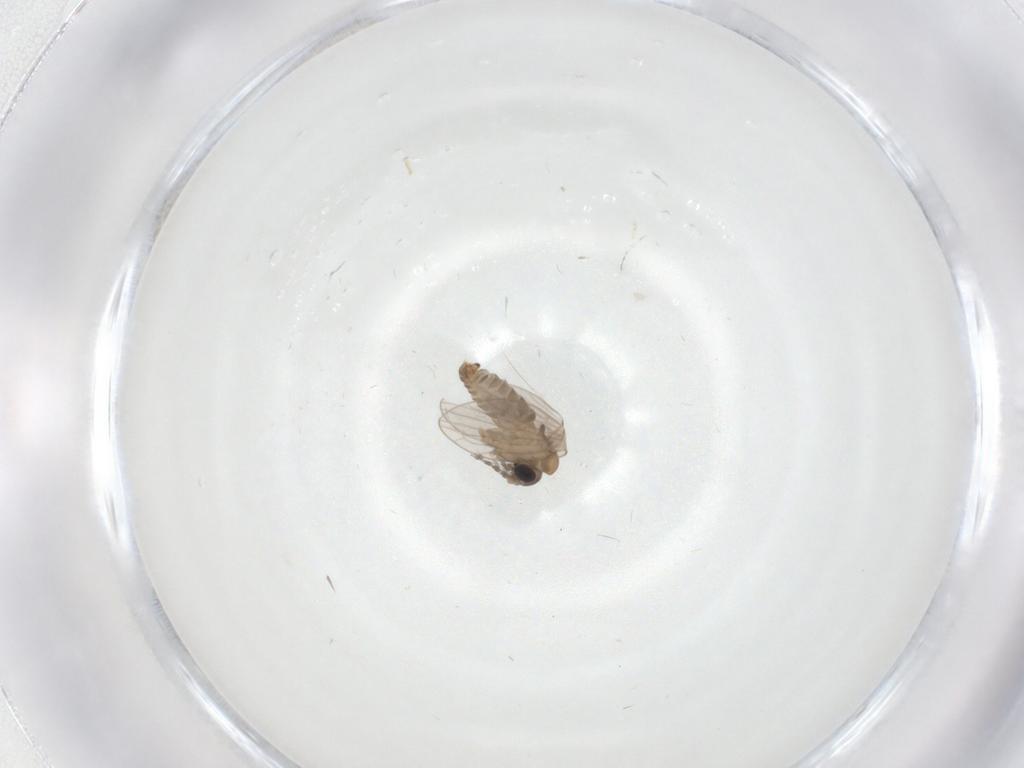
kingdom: Animalia
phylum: Arthropoda
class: Insecta
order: Diptera
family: Psychodidae
